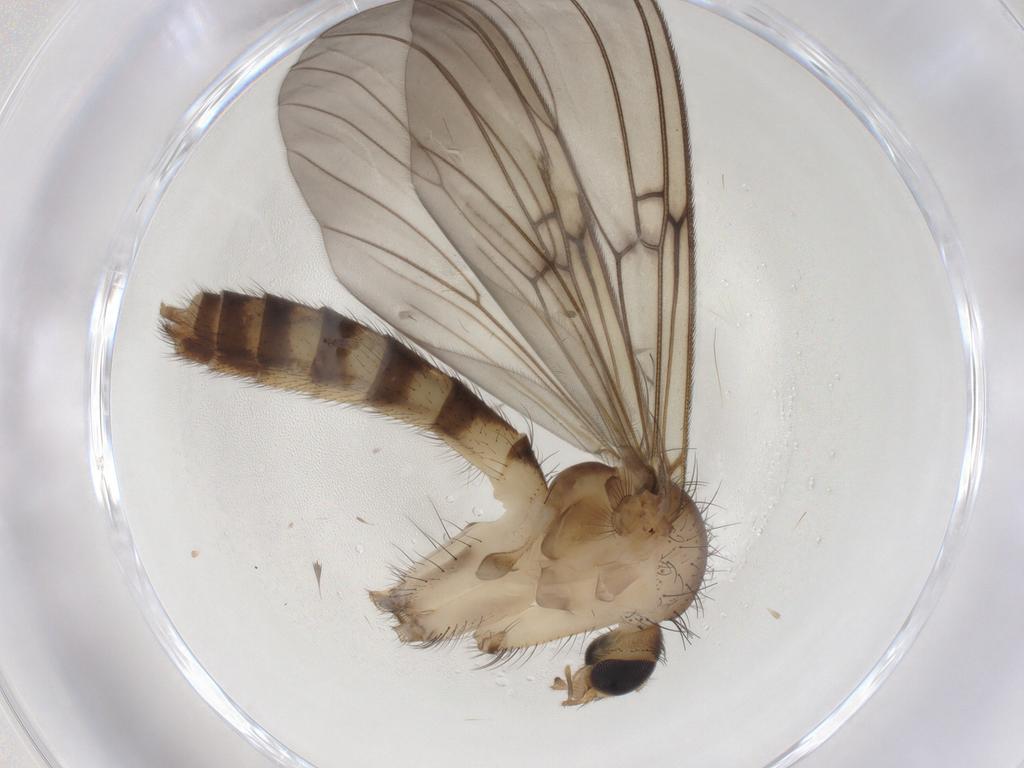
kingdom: Animalia
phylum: Arthropoda
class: Insecta
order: Diptera
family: Mycetophilidae
